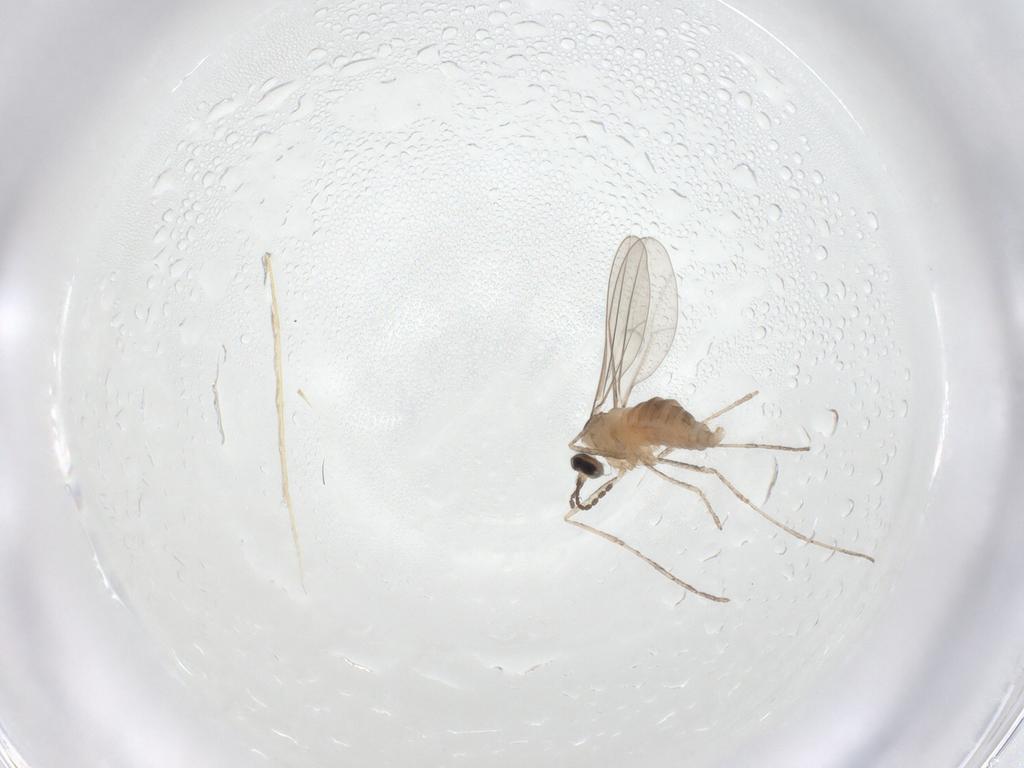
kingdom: Animalia
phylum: Arthropoda
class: Insecta
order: Diptera
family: Cecidomyiidae
